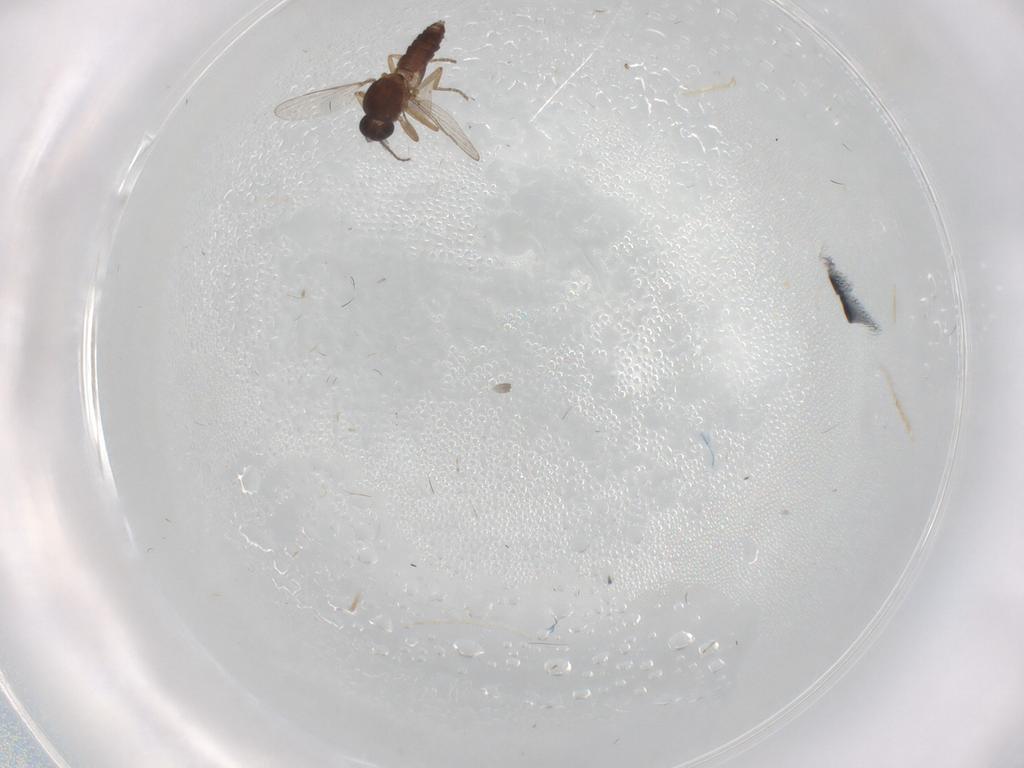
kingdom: Animalia
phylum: Arthropoda
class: Insecta
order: Diptera
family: Ceratopogonidae
